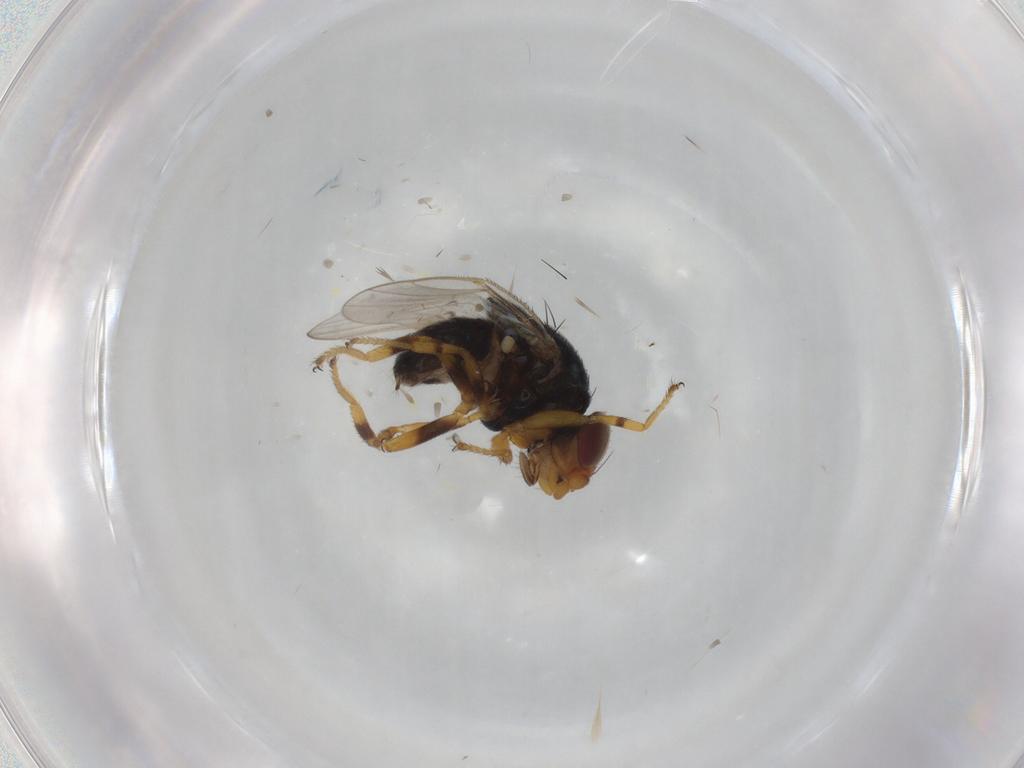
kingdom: Animalia
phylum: Arthropoda
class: Insecta
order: Diptera
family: Chloropidae
